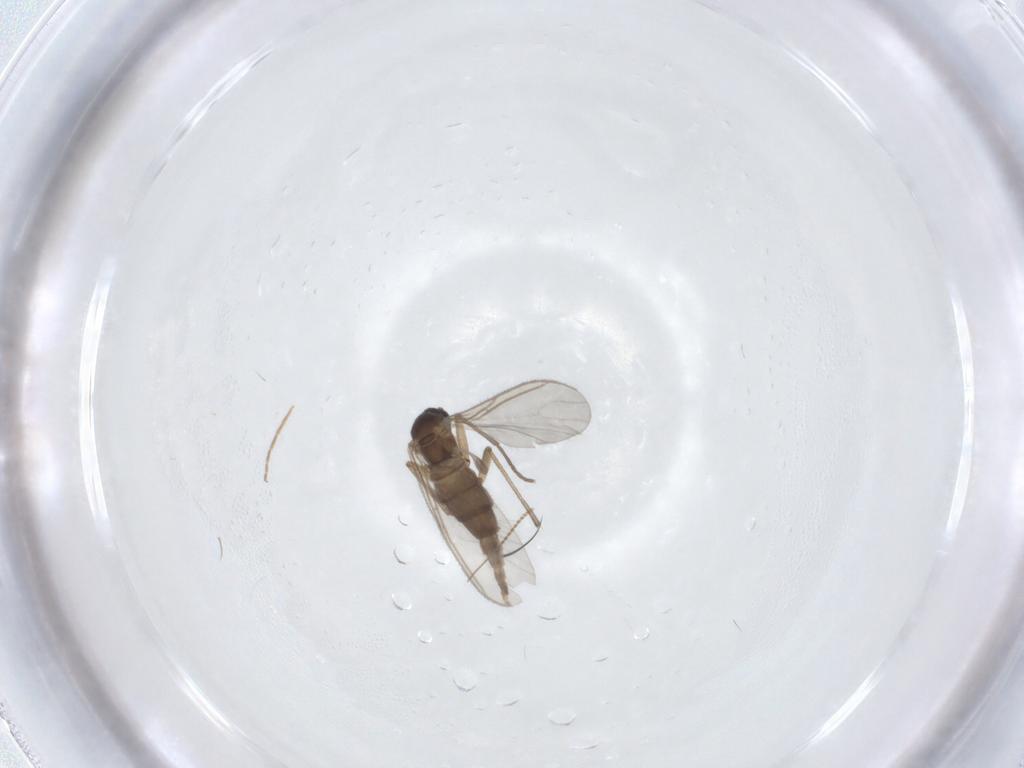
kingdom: Animalia
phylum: Arthropoda
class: Insecta
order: Diptera
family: Sciaridae
